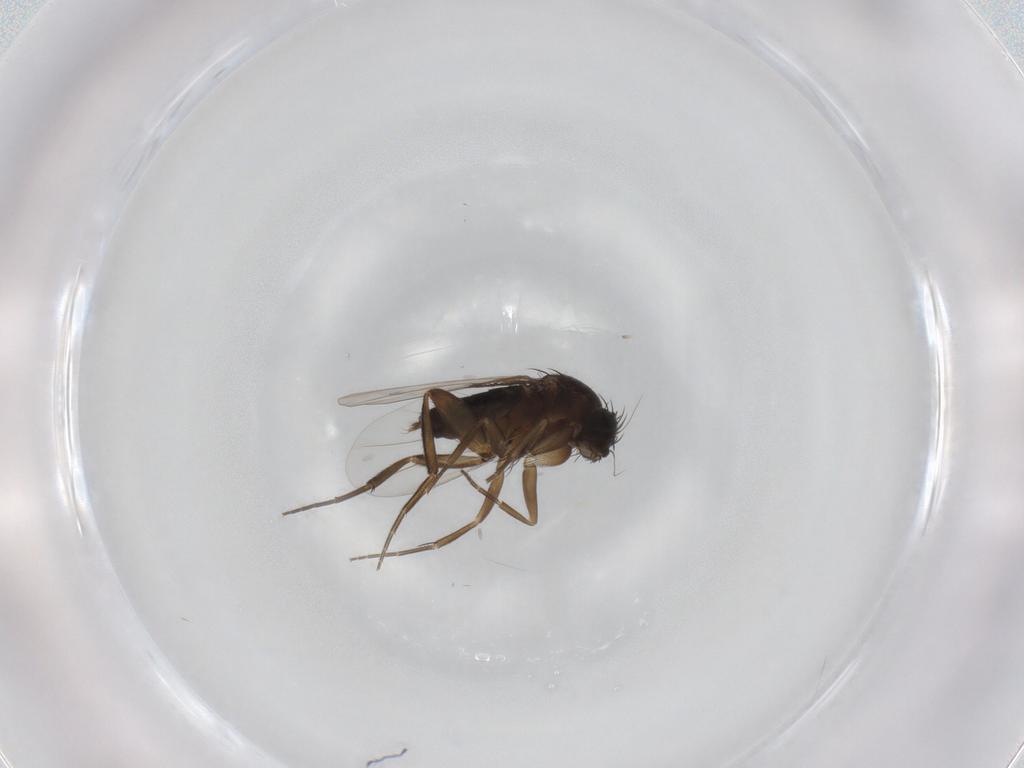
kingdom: Animalia
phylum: Arthropoda
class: Insecta
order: Diptera
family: Phoridae
